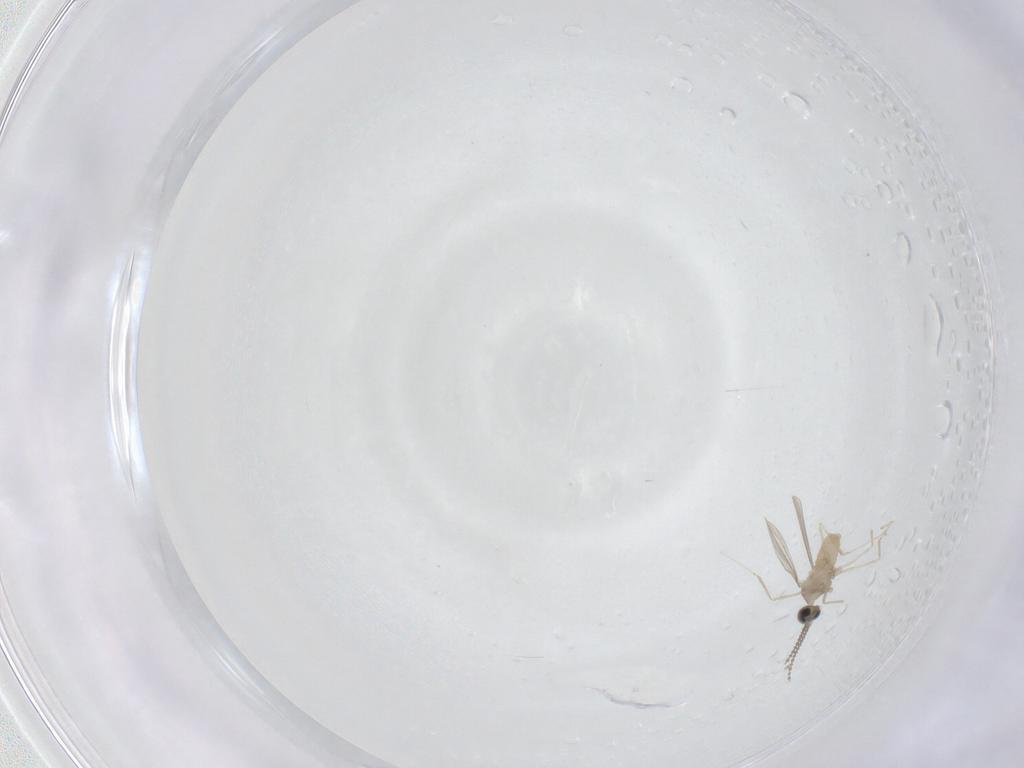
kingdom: Animalia
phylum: Arthropoda
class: Insecta
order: Diptera
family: Cecidomyiidae
